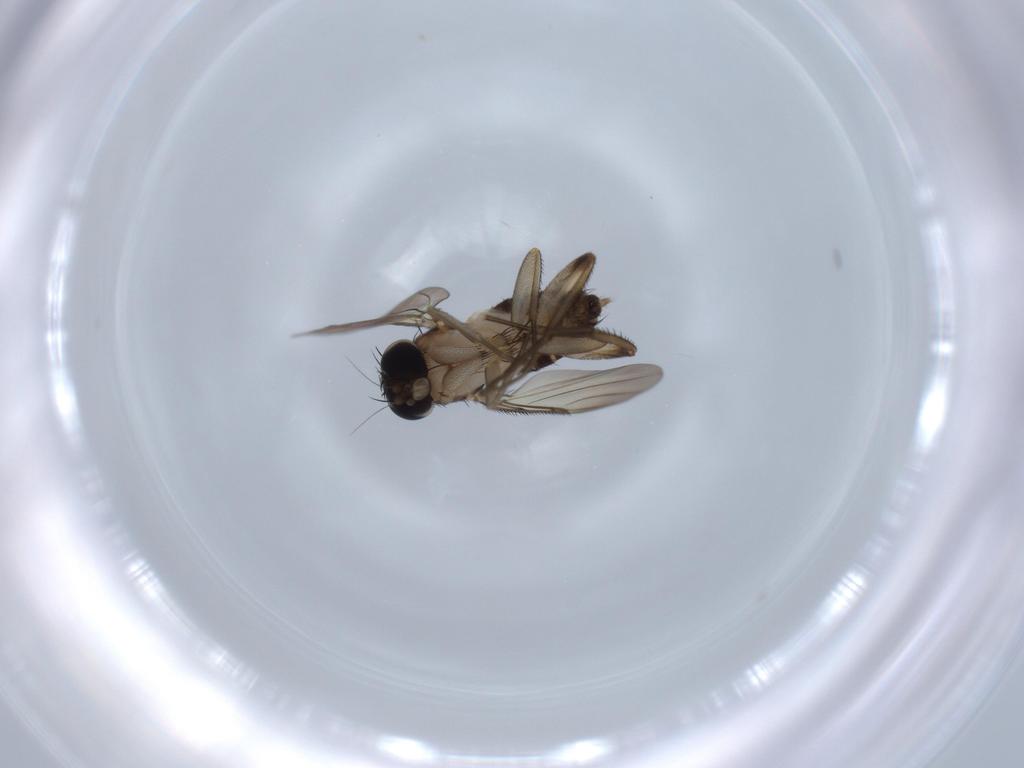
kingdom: Animalia
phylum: Arthropoda
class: Insecta
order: Diptera
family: Phoridae
